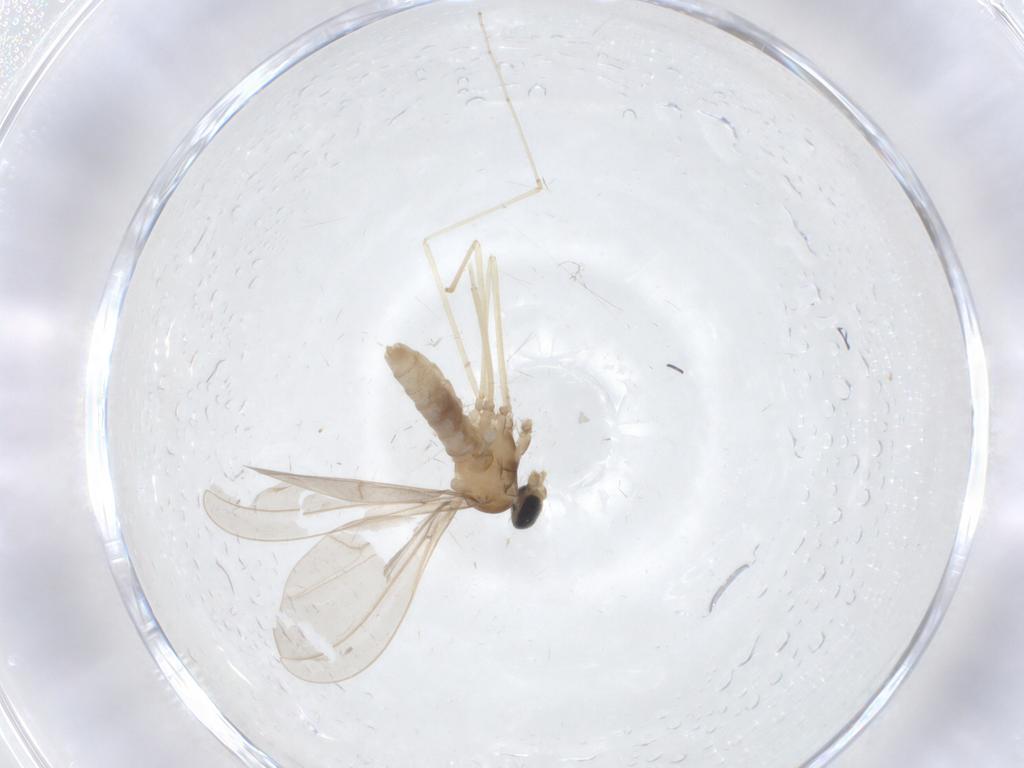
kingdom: Animalia
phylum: Arthropoda
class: Insecta
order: Diptera
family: Cecidomyiidae
